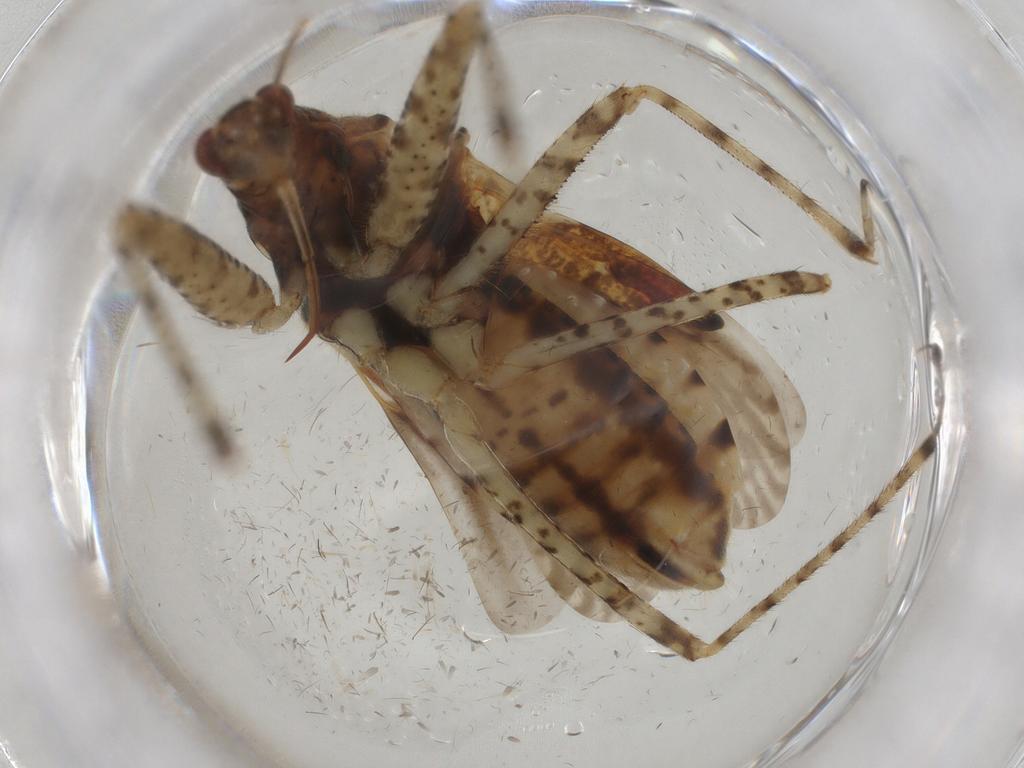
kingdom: Animalia
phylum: Arthropoda
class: Insecta
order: Hemiptera
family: Nabidae
